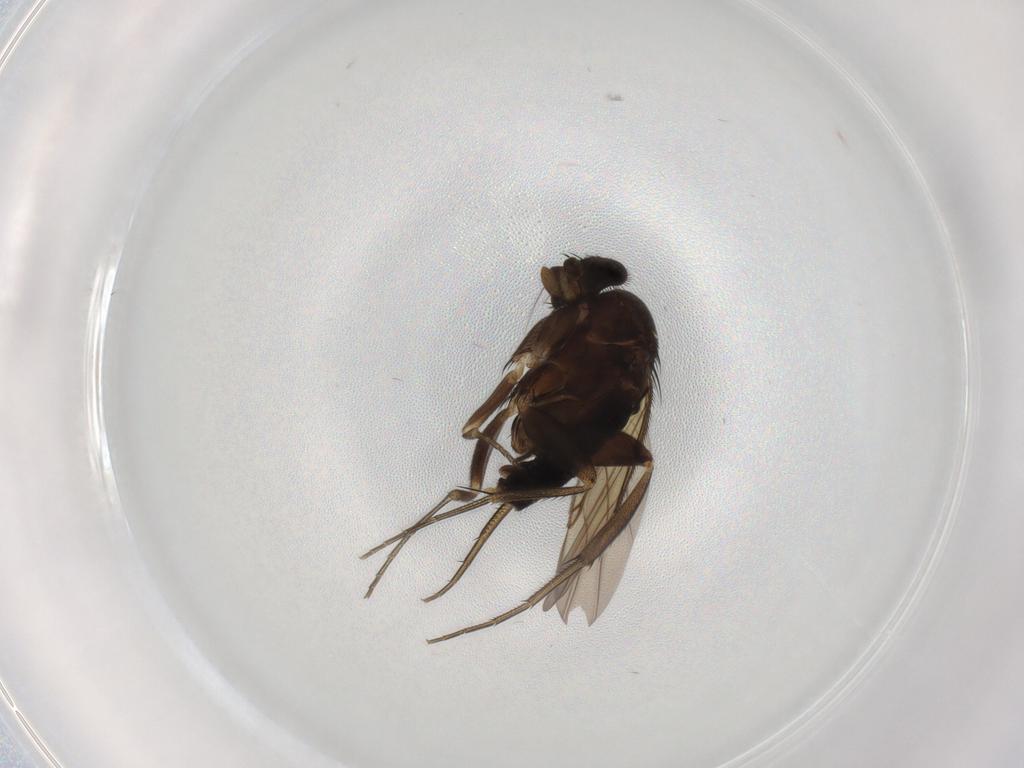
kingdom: Animalia
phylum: Arthropoda
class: Insecta
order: Diptera
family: Phoridae
